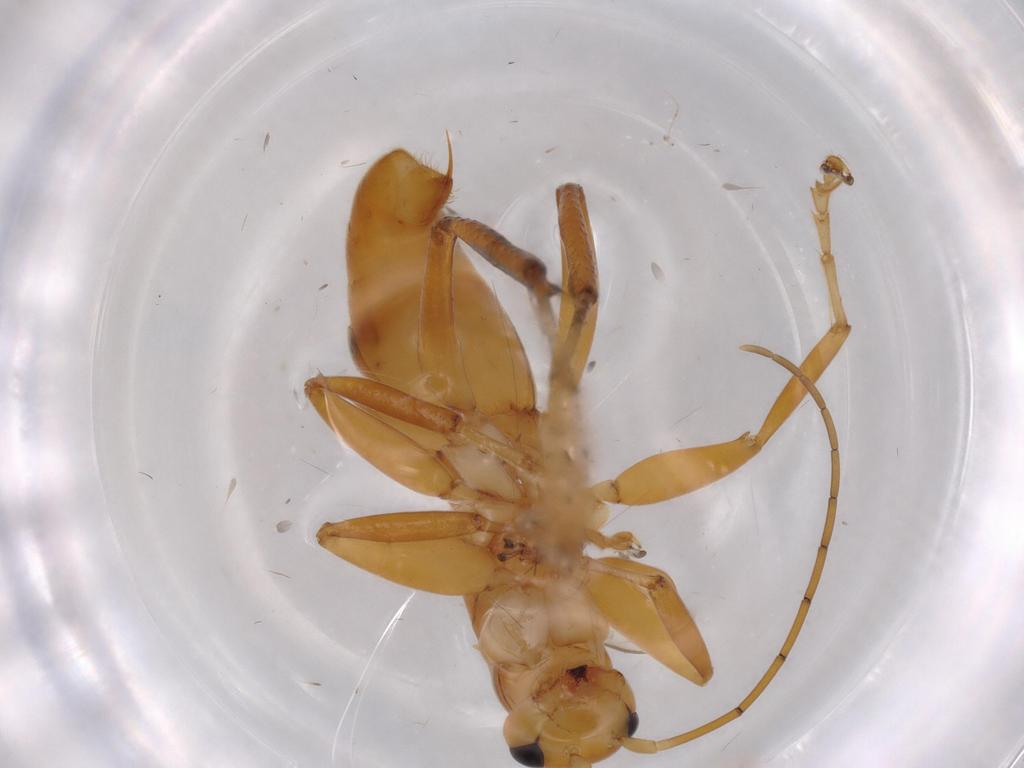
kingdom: Animalia
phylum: Arthropoda
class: Insecta
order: Hymenoptera
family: Rhopalosomatidae
